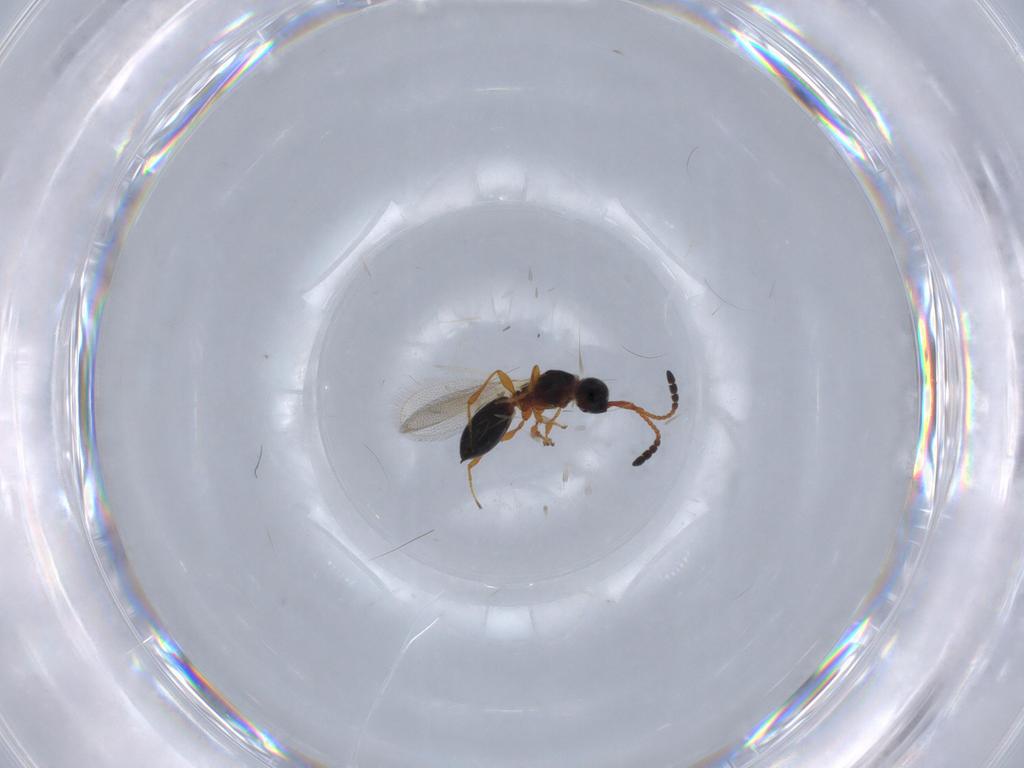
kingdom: Animalia
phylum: Arthropoda
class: Insecta
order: Hymenoptera
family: Diapriidae
